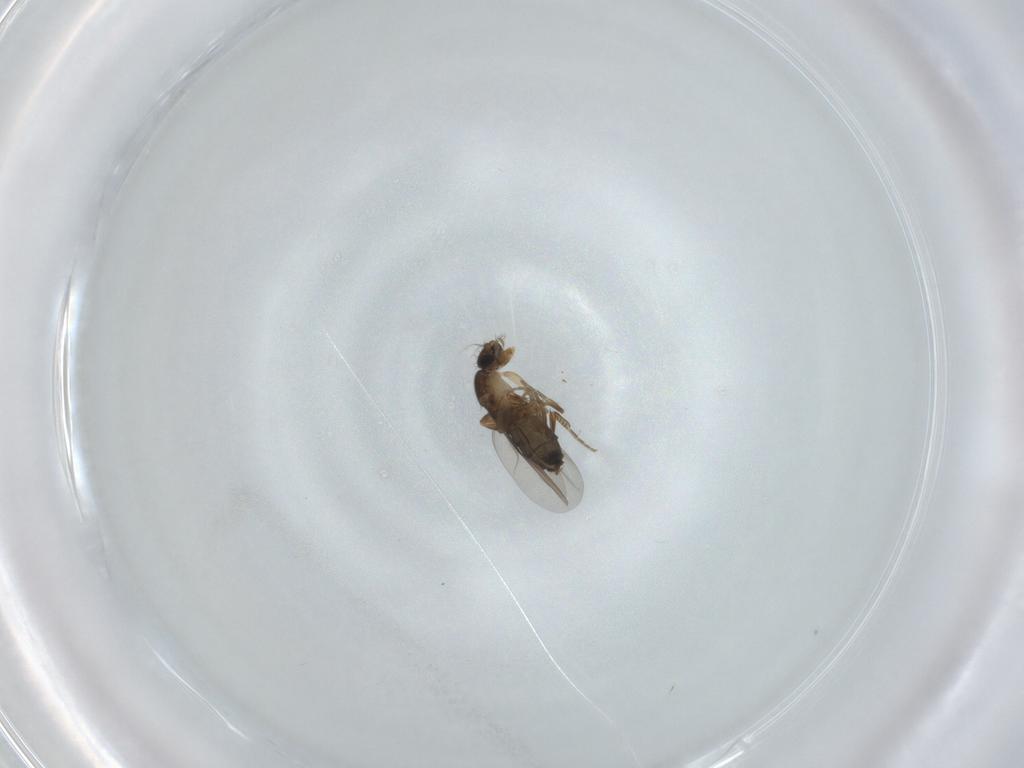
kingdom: Animalia
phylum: Arthropoda
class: Insecta
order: Diptera
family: Phoridae
